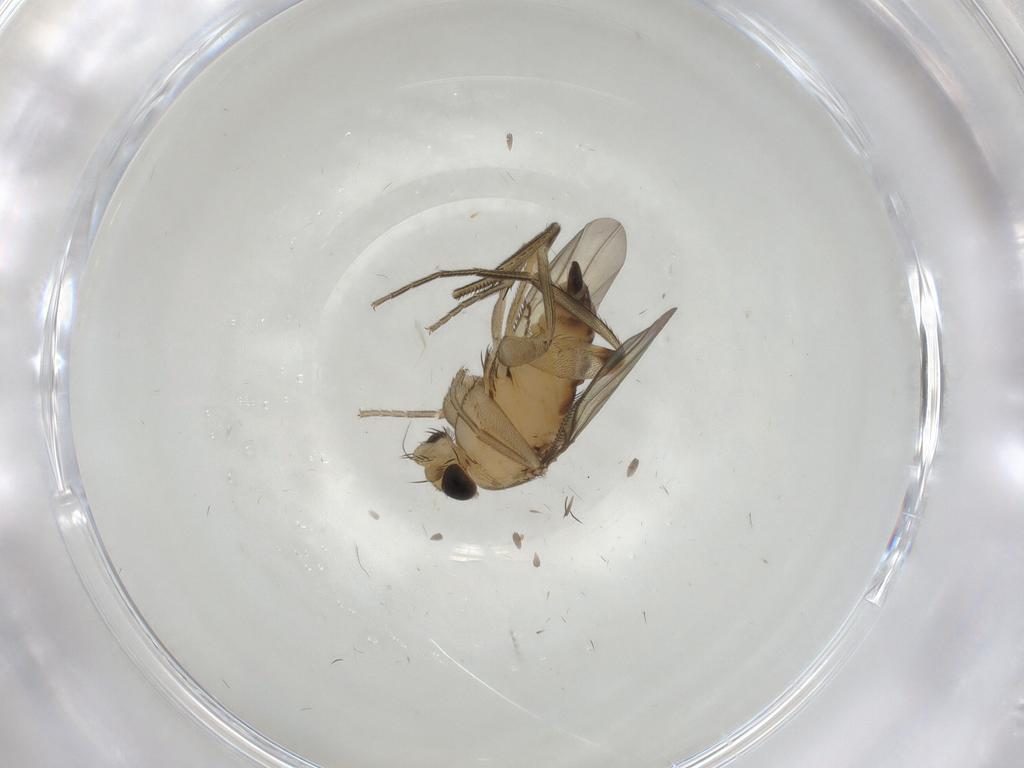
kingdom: Animalia
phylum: Arthropoda
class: Insecta
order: Diptera
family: Phoridae
